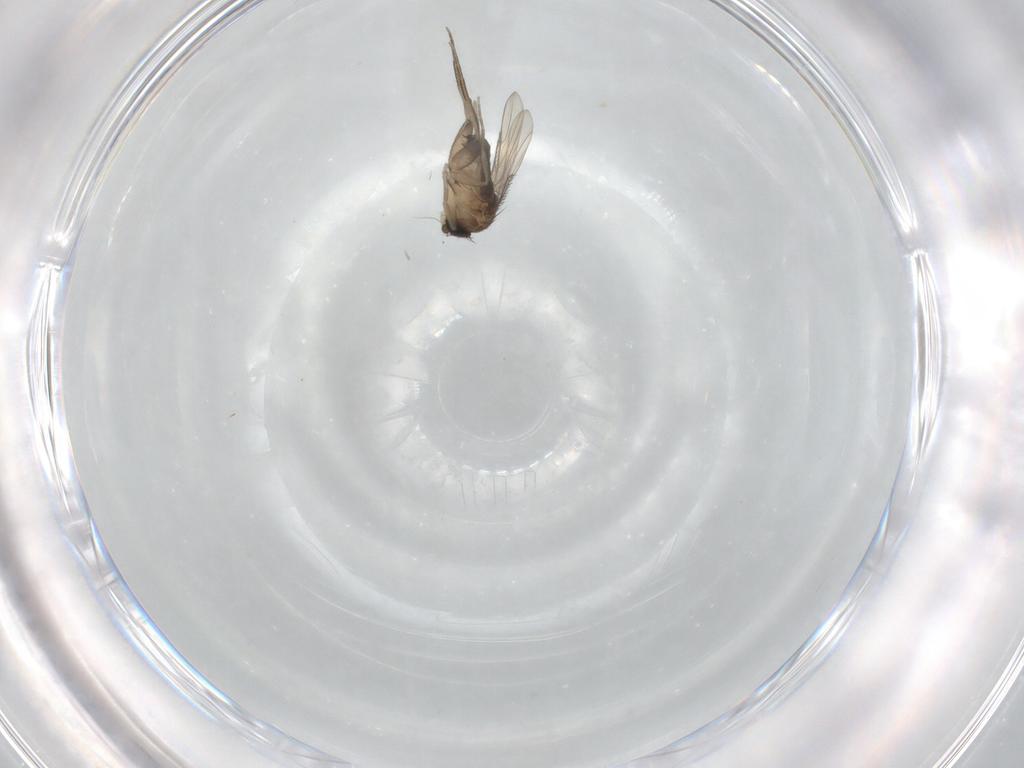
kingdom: Animalia
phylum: Arthropoda
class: Insecta
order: Diptera
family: Phoridae
